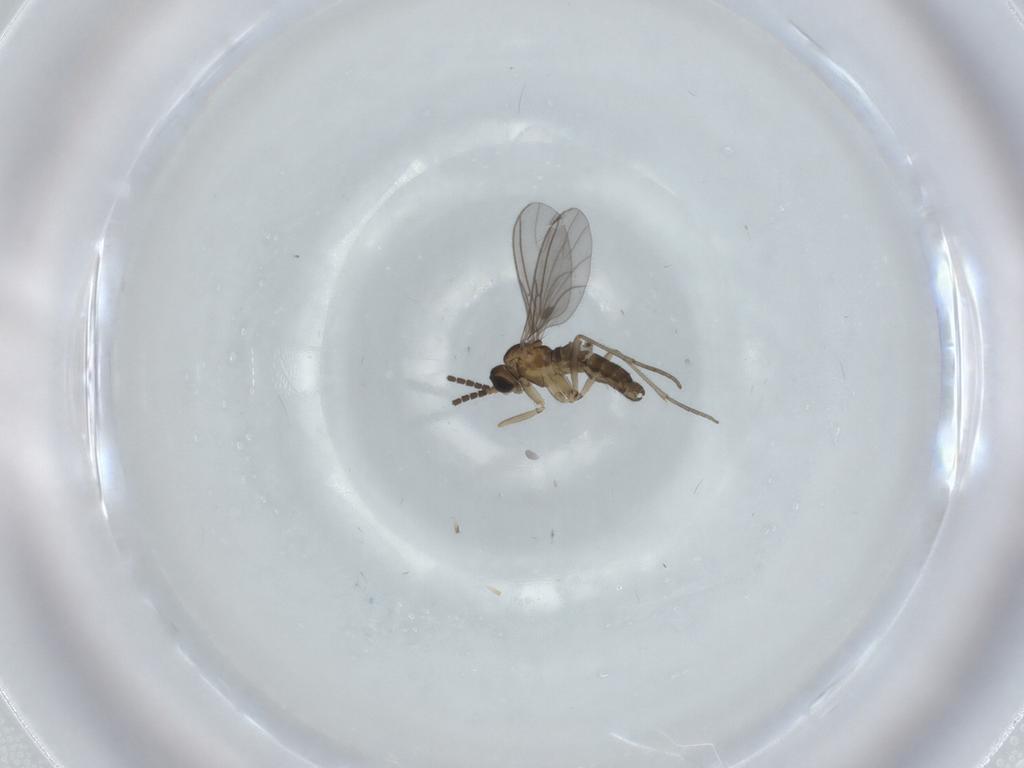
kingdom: Animalia
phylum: Arthropoda
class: Insecta
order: Diptera
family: Sciaridae
